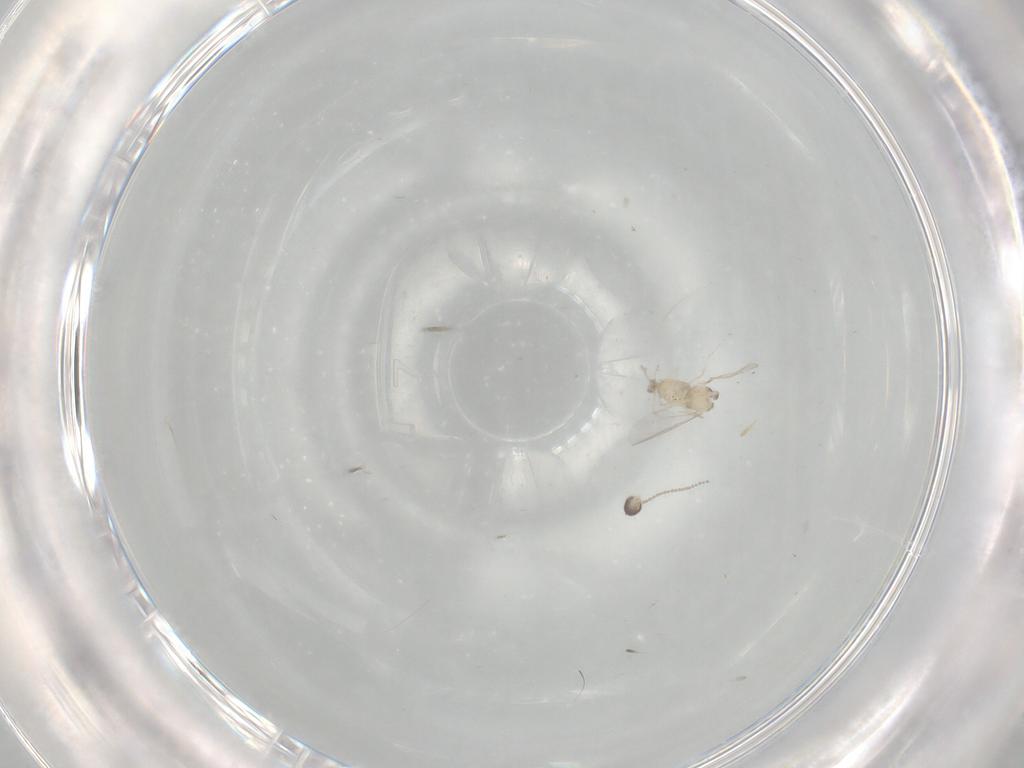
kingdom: Animalia
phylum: Arthropoda
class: Insecta
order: Diptera
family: Cecidomyiidae
